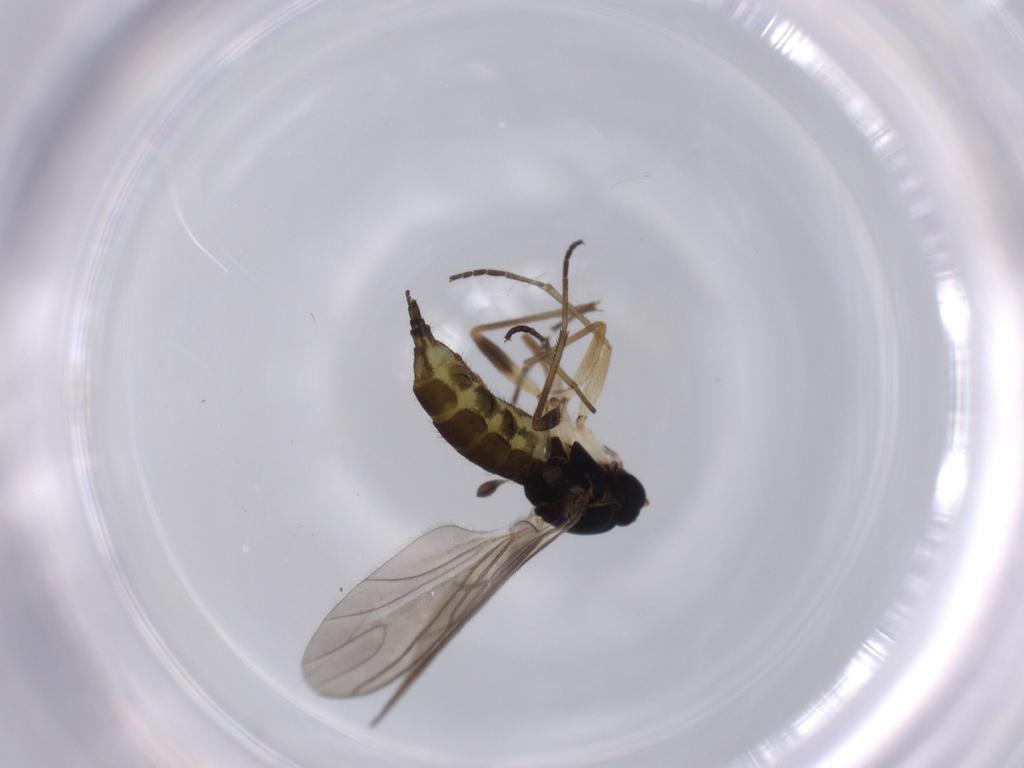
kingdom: Animalia
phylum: Arthropoda
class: Insecta
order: Diptera
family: Sciaridae
